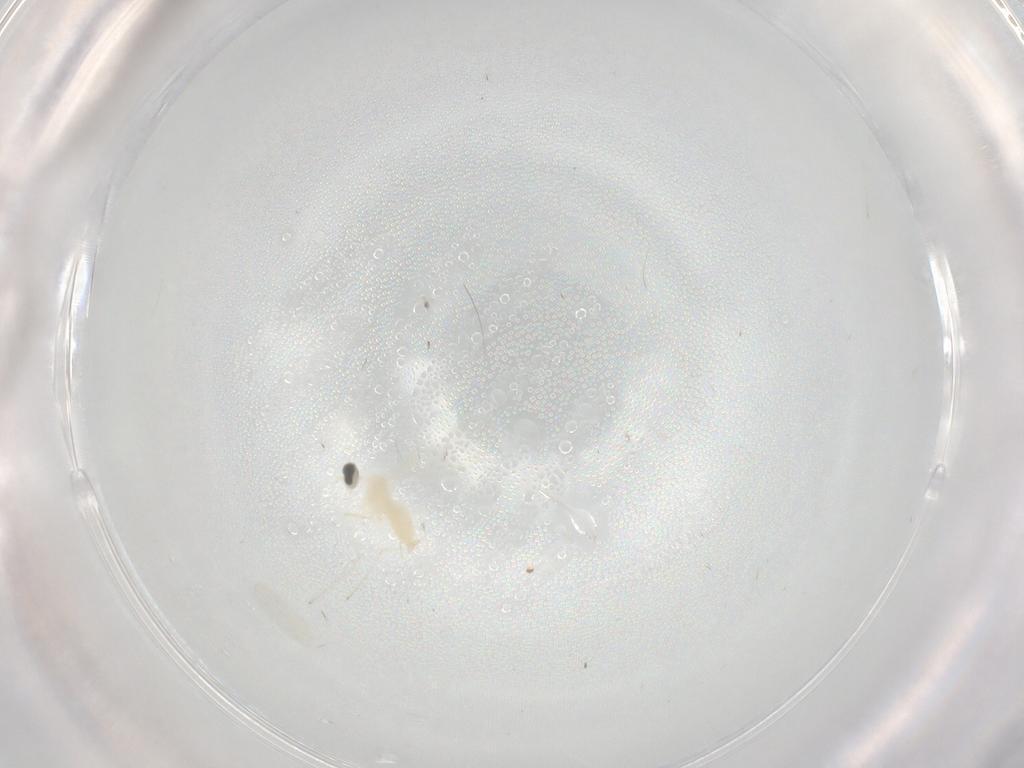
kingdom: Animalia
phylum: Arthropoda
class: Insecta
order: Diptera
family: Cecidomyiidae
